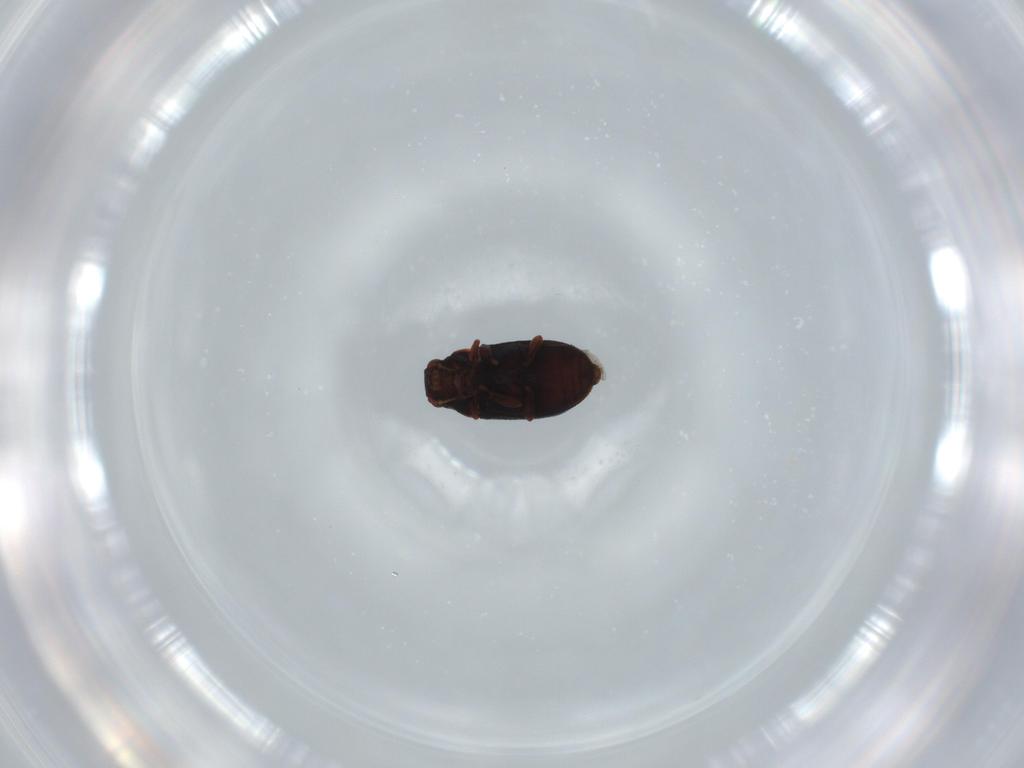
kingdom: Animalia
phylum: Arthropoda
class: Insecta
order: Coleoptera
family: Ptinidae
